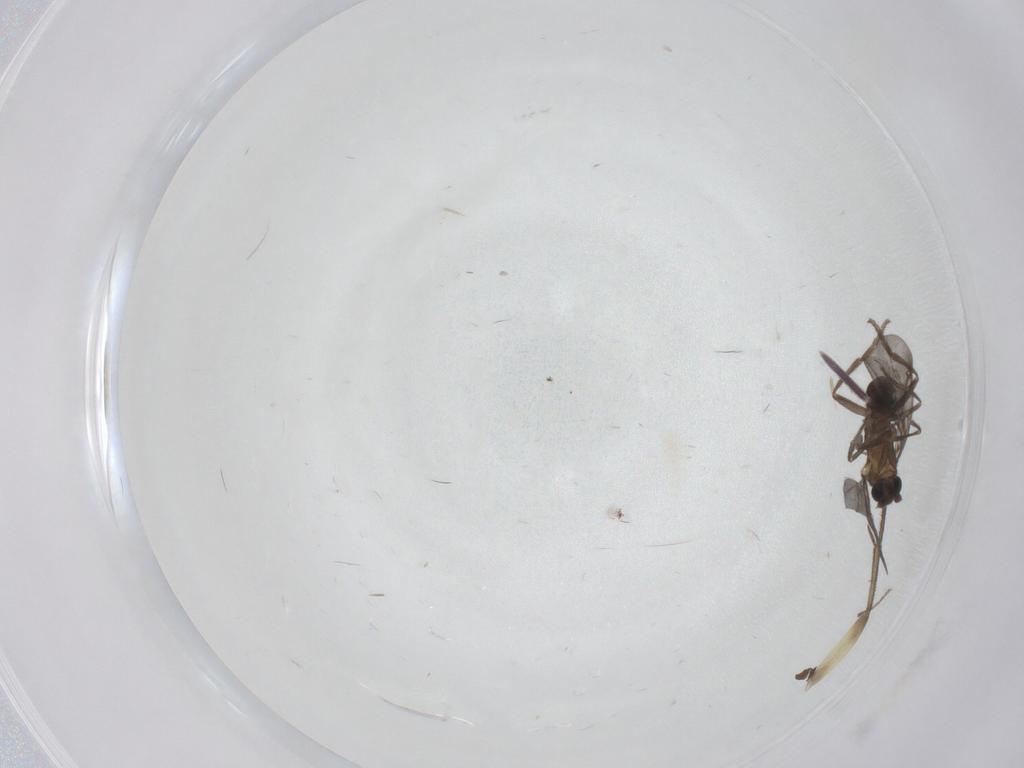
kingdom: Animalia
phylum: Arthropoda
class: Insecta
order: Diptera
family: Phoridae
